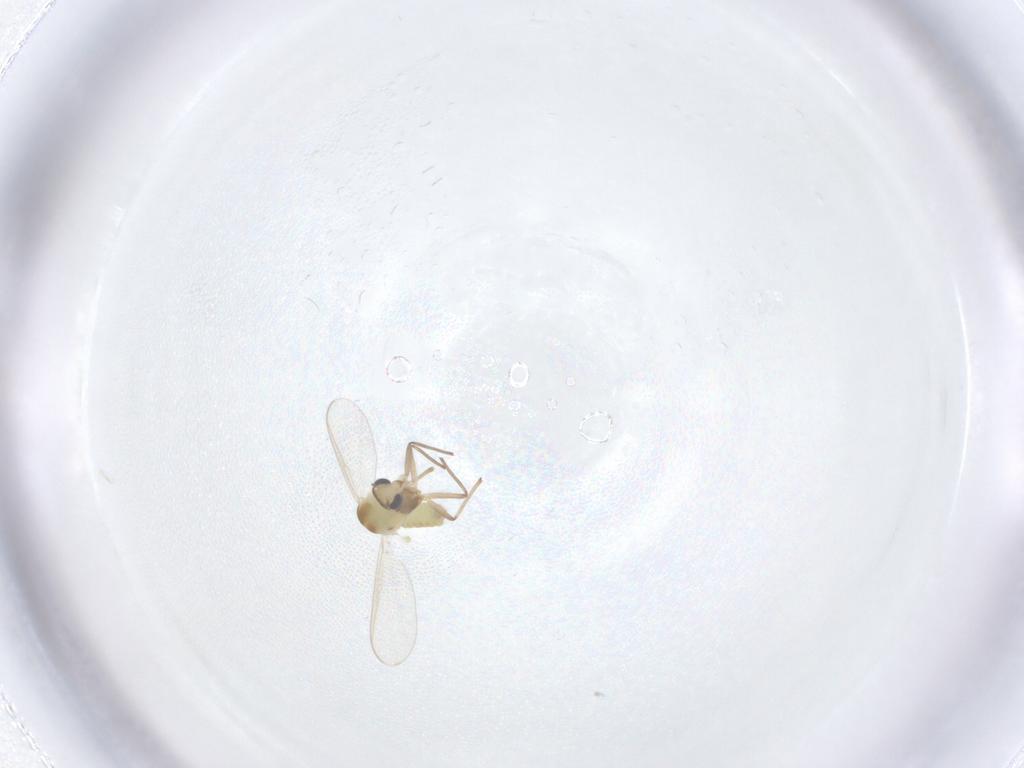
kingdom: Animalia
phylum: Arthropoda
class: Insecta
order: Diptera
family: Chironomidae
